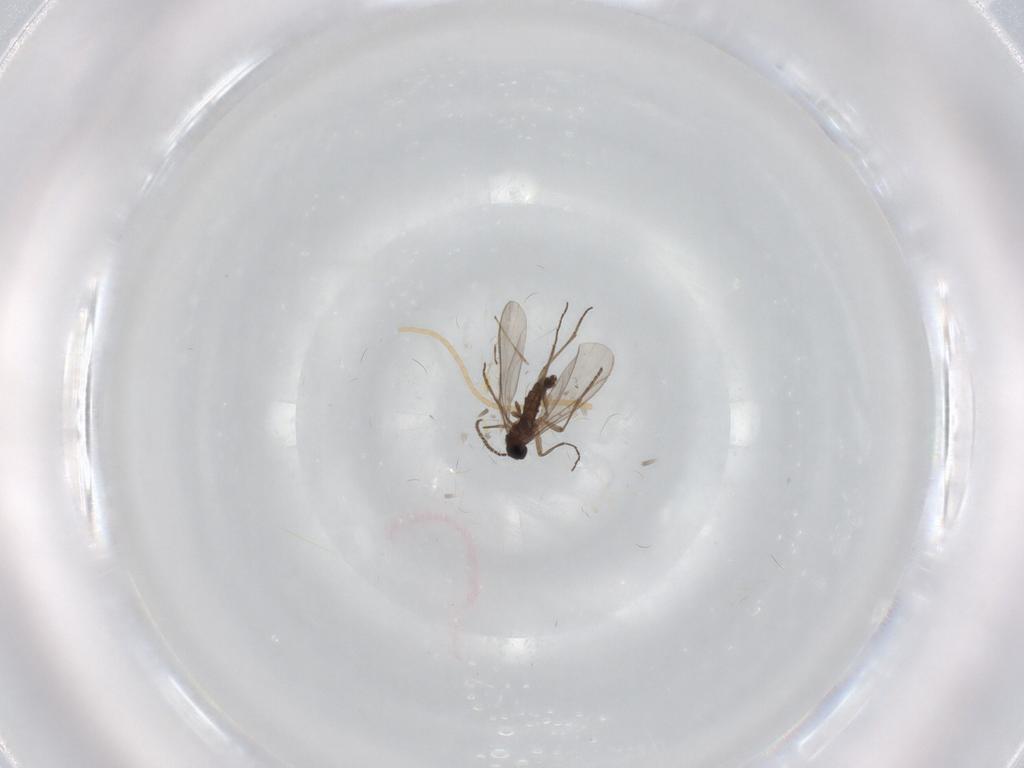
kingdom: Animalia
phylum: Arthropoda
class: Insecta
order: Diptera
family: Sciaridae
